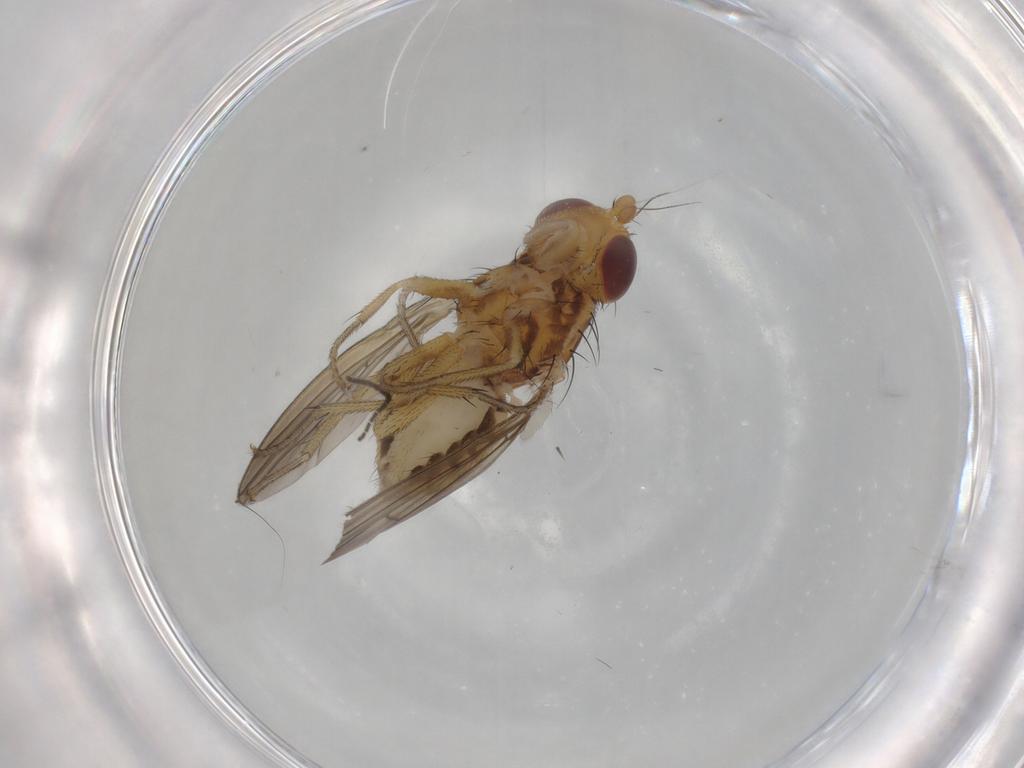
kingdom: Animalia
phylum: Arthropoda
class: Insecta
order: Diptera
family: Lauxaniidae
